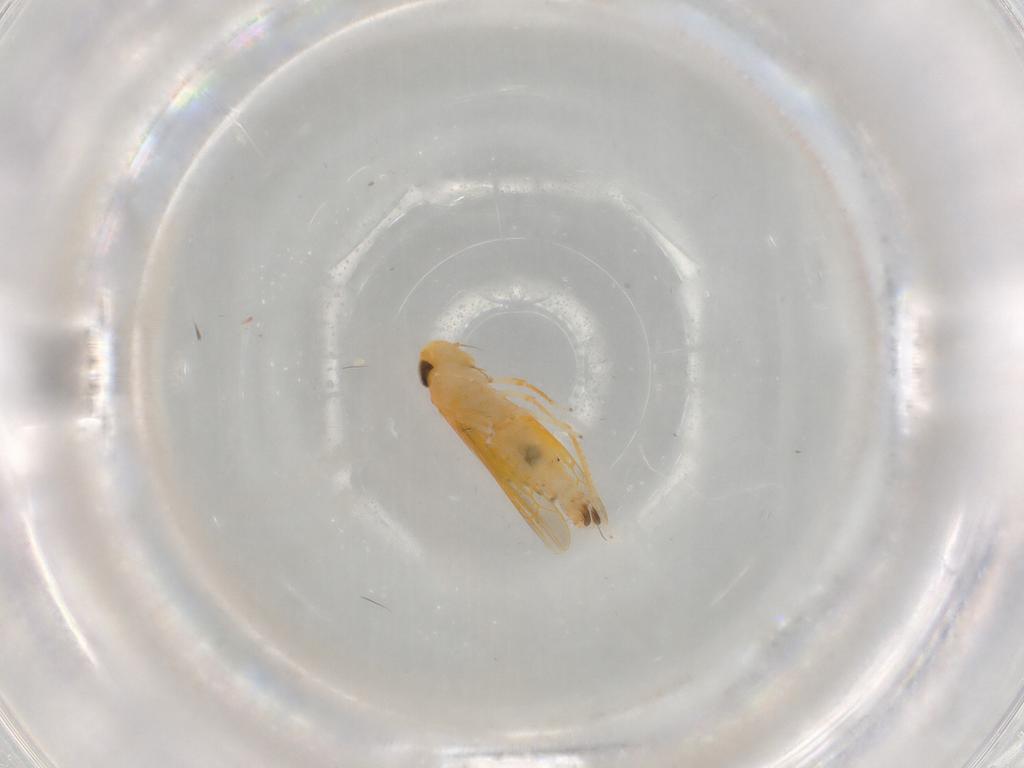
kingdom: Animalia
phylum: Arthropoda
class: Insecta
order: Hemiptera
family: Cicadellidae
